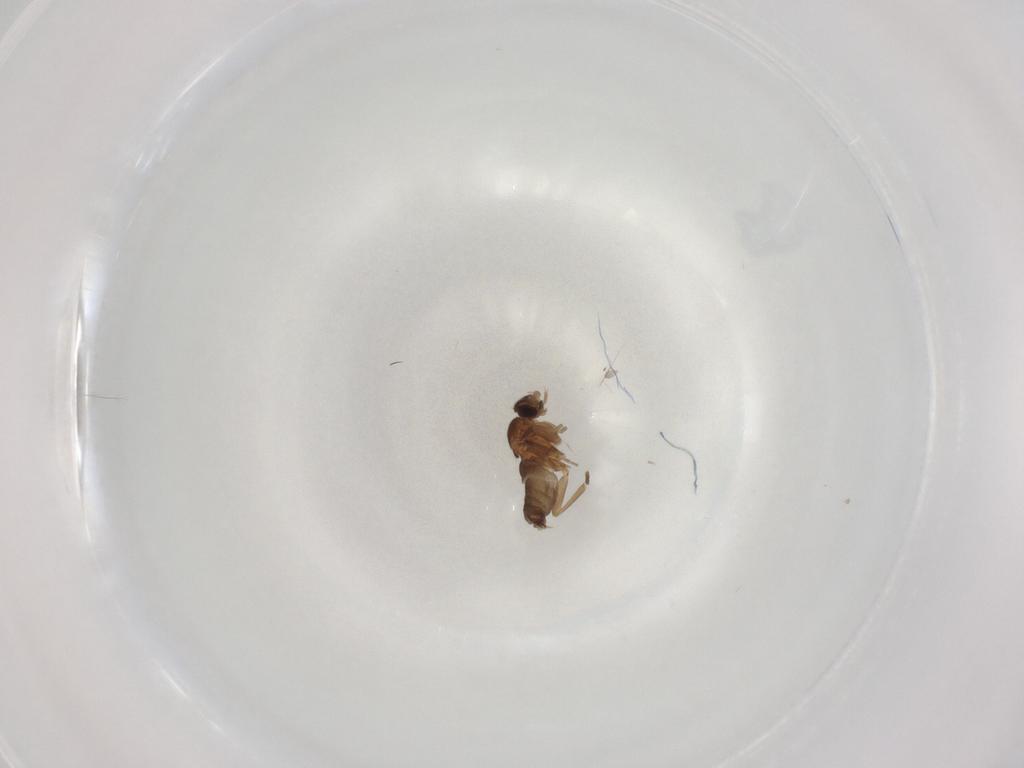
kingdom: Animalia
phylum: Arthropoda
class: Insecta
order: Diptera
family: Phoridae
